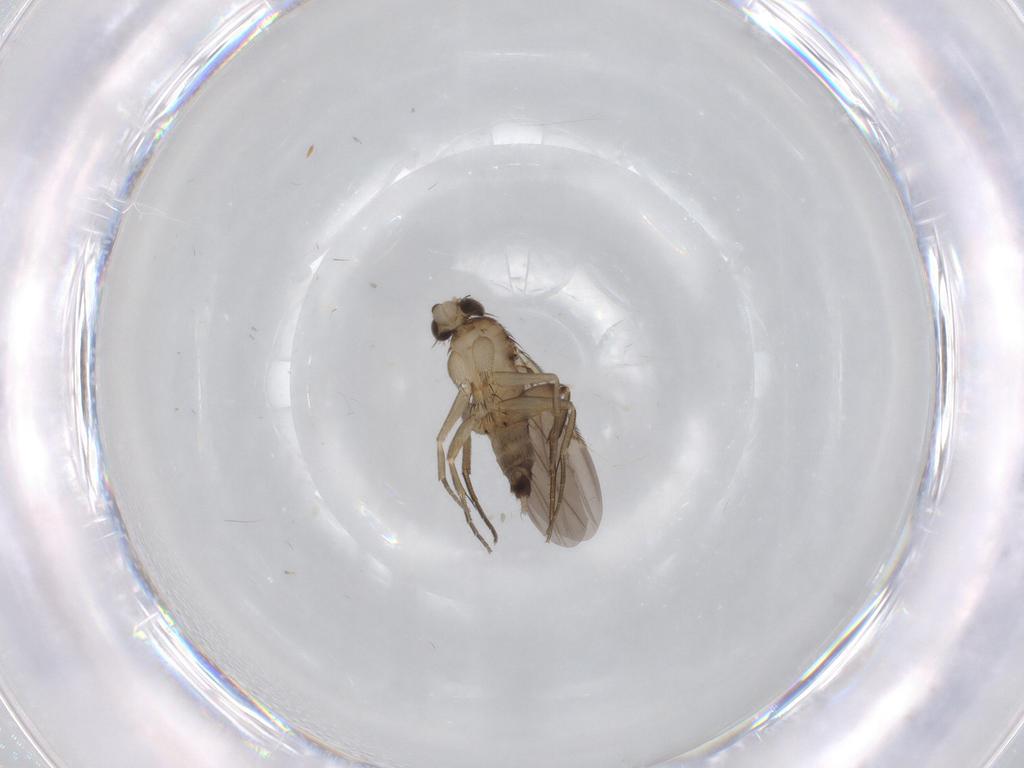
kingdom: Animalia
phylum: Arthropoda
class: Insecta
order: Diptera
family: Phoridae
